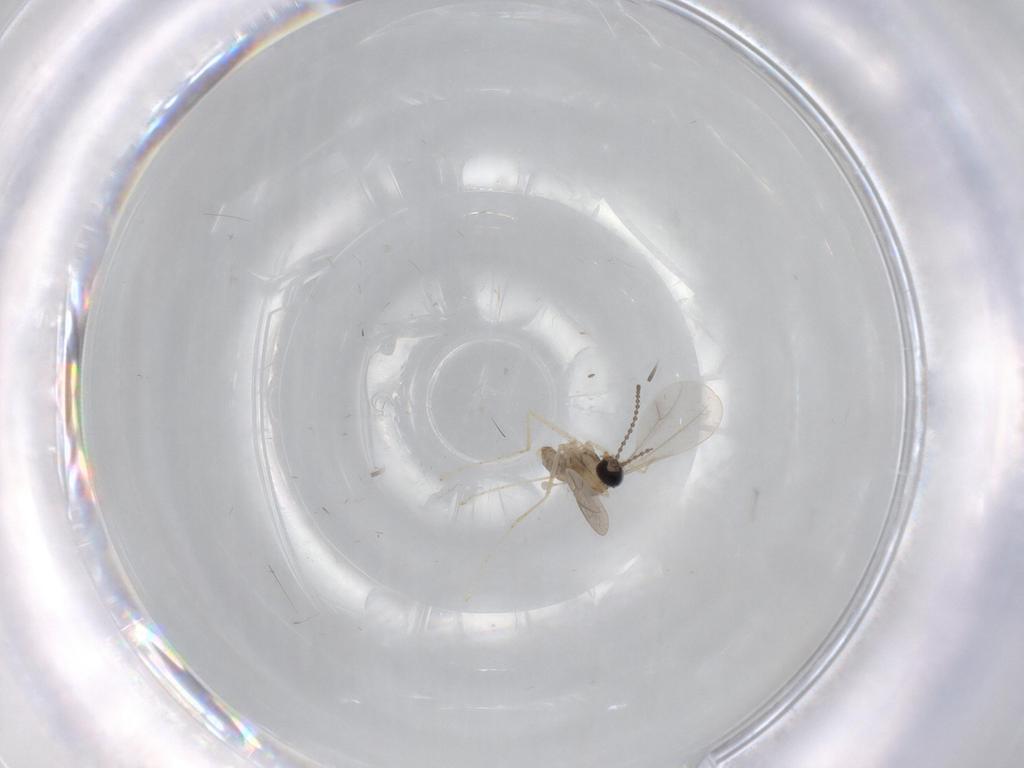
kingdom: Animalia
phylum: Arthropoda
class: Insecta
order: Diptera
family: Cecidomyiidae
